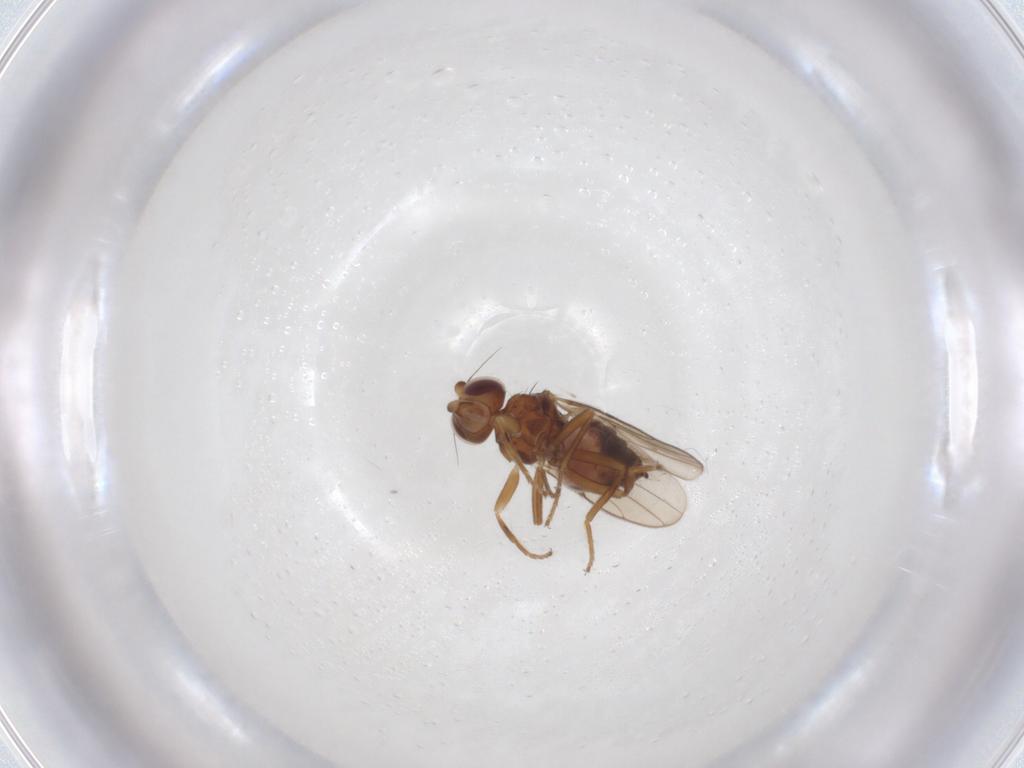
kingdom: Animalia
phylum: Arthropoda
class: Insecta
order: Diptera
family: Chloropidae
